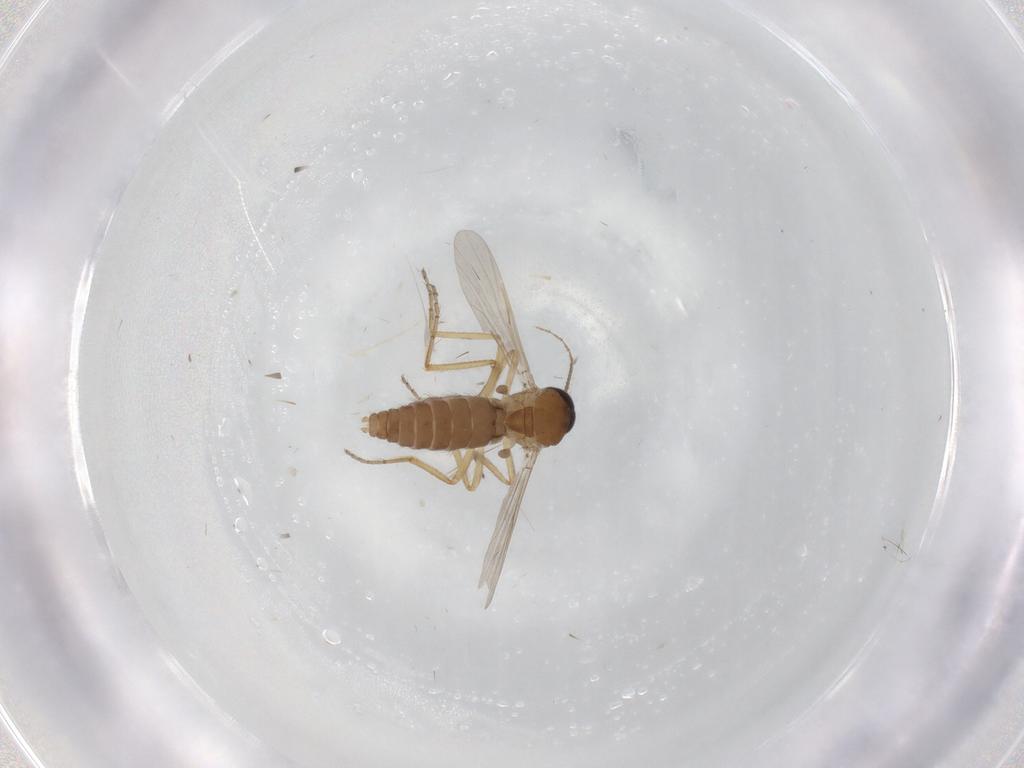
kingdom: Animalia
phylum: Arthropoda
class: Insecta
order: Diptera
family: Ceratopogonidae
